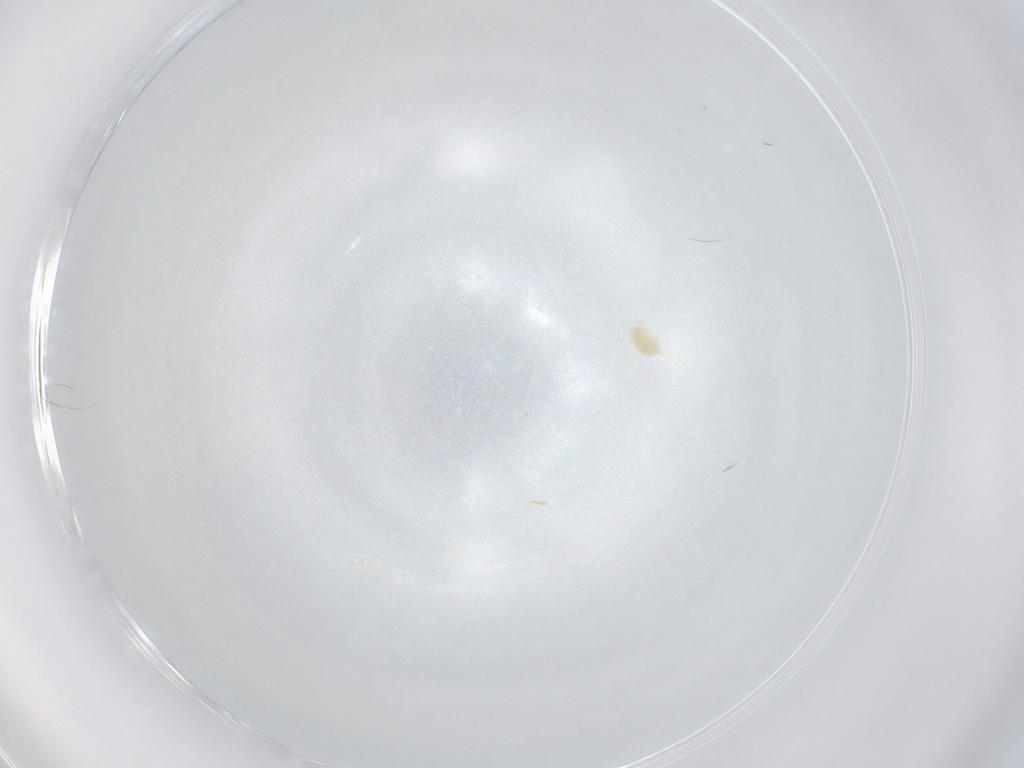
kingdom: Animalia
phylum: Arthropoda
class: Arachnida
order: Trombidiformes
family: Eupodidae
